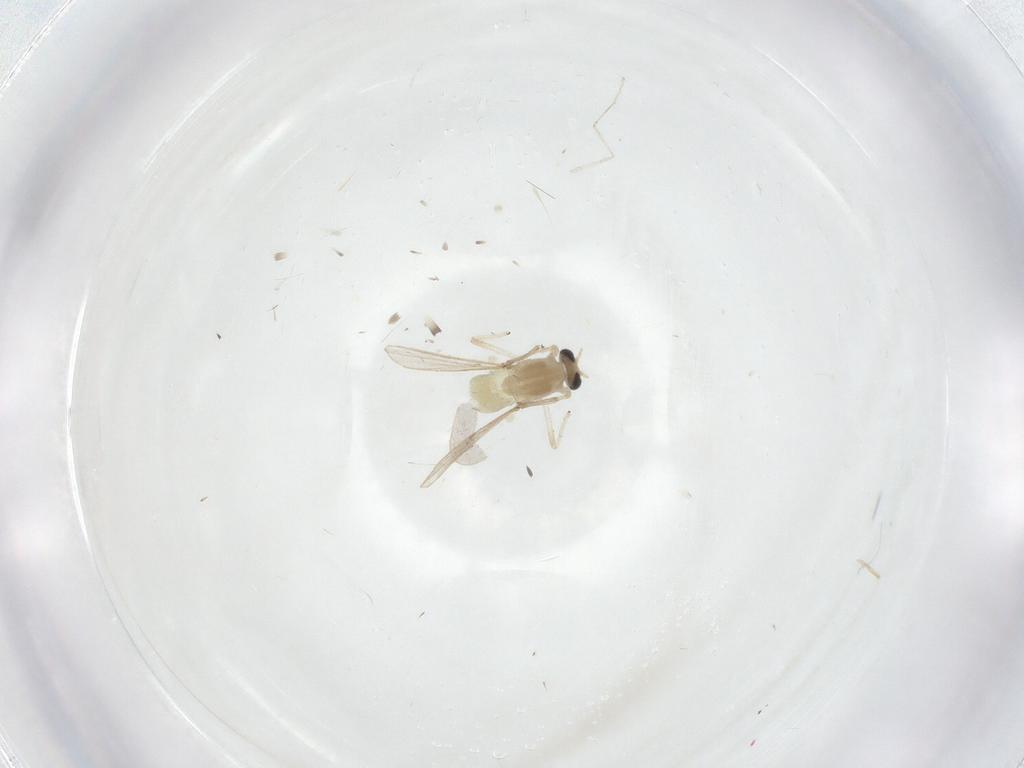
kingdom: Animalia
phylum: Arthropoda
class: Insecta
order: Diptera
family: Chironomidae
